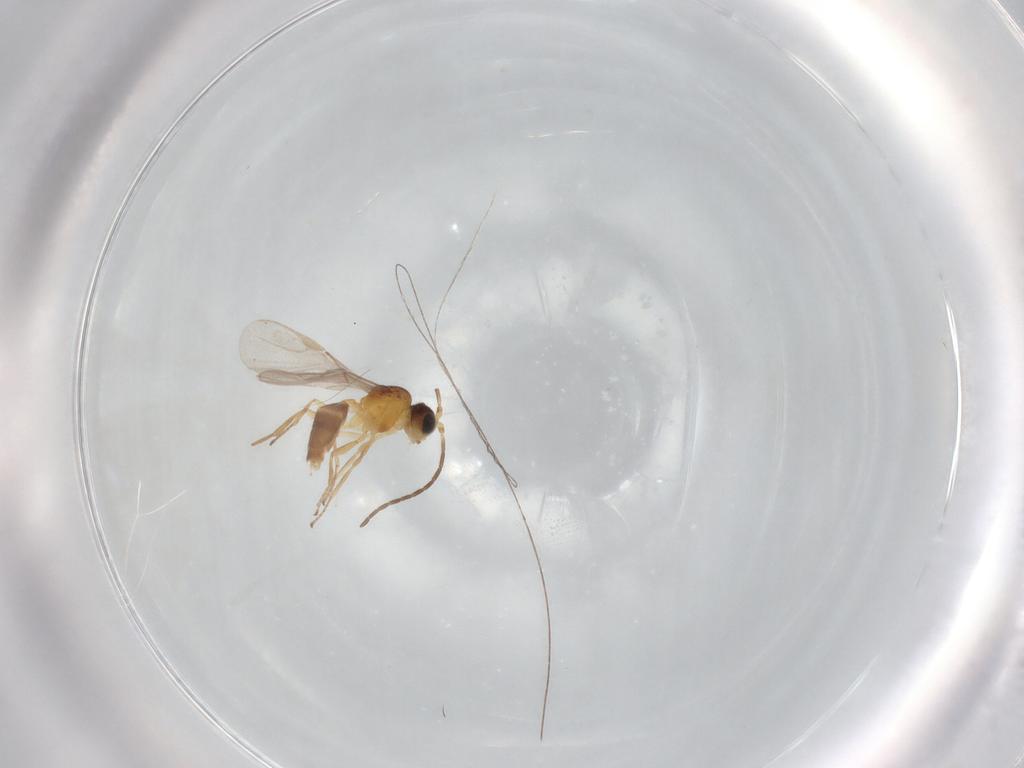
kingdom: Animalia
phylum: Arthropoda
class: Insecta
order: Hymenoptera
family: Braconidae
